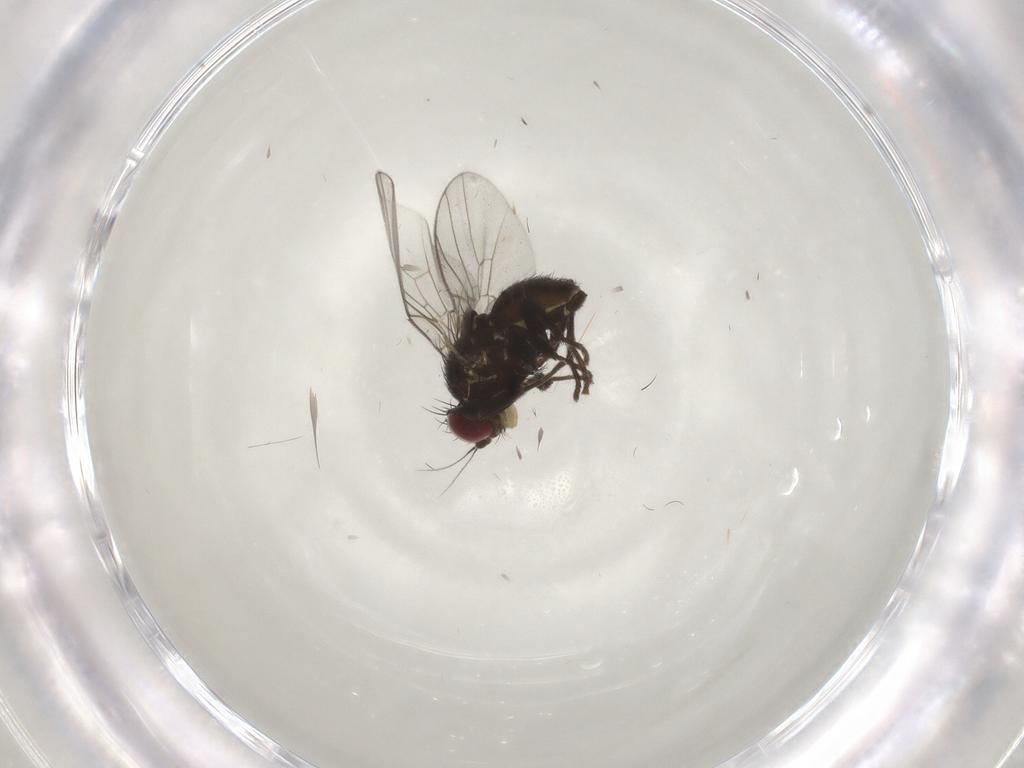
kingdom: Animalia
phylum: Arthropoda
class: Insecta
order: Diptera
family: Agromyzidae
